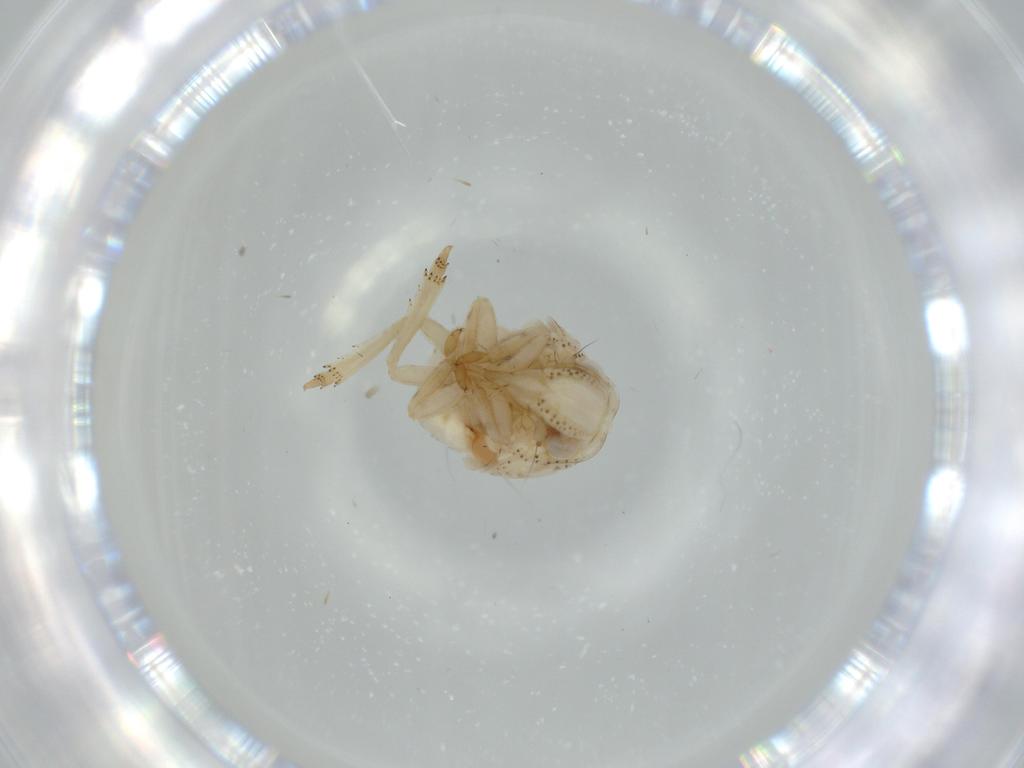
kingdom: Animalia
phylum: Arthropoda
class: Insecta
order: Hemiptera
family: Acanaloniidae
